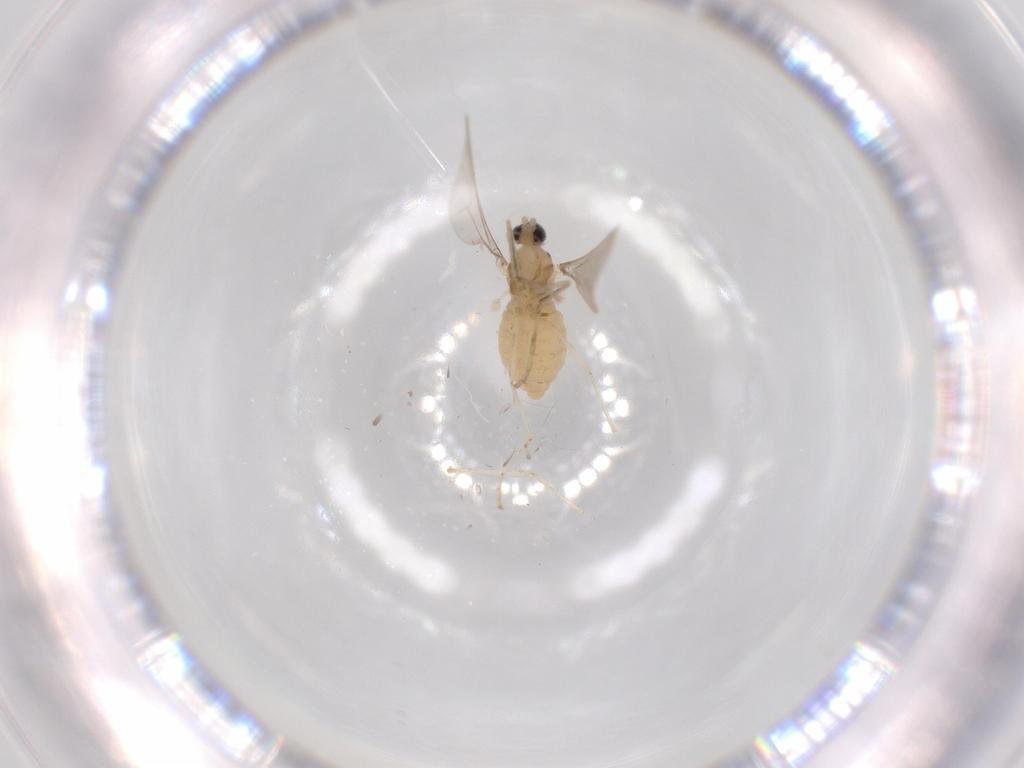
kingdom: Animalia
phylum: Arthropoda
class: Insecta
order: Diptera
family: Cecidomyiidae
